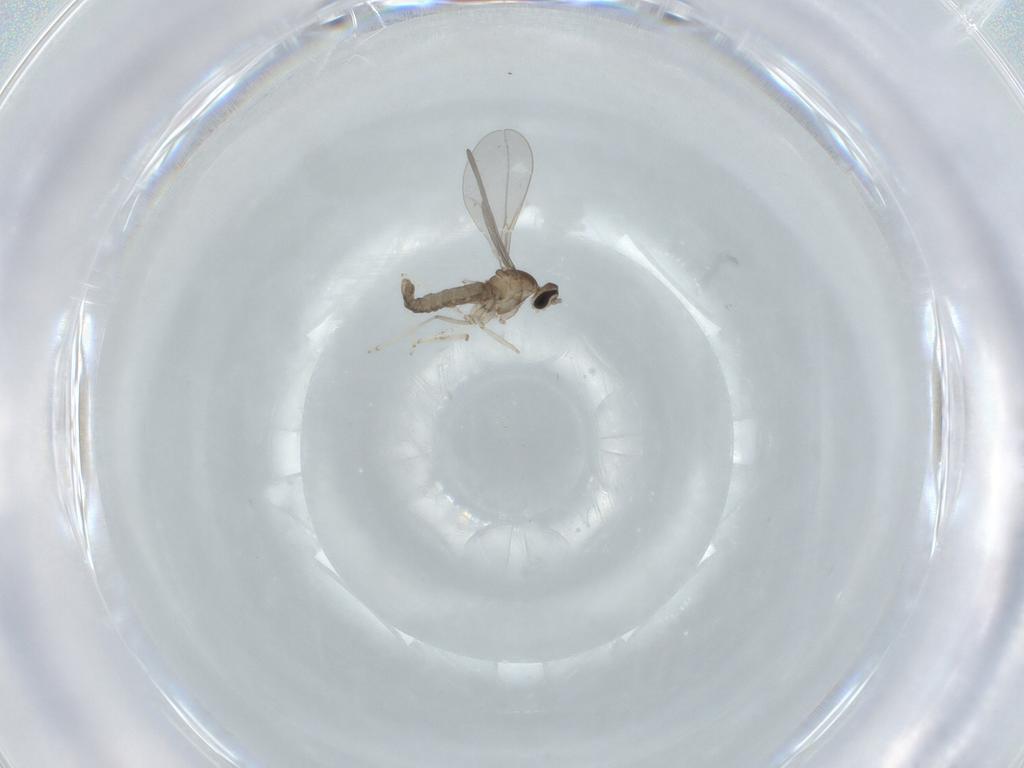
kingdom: Animalia
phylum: Arthropoda
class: Insecta
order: Diptera
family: Cecidomyiidae
